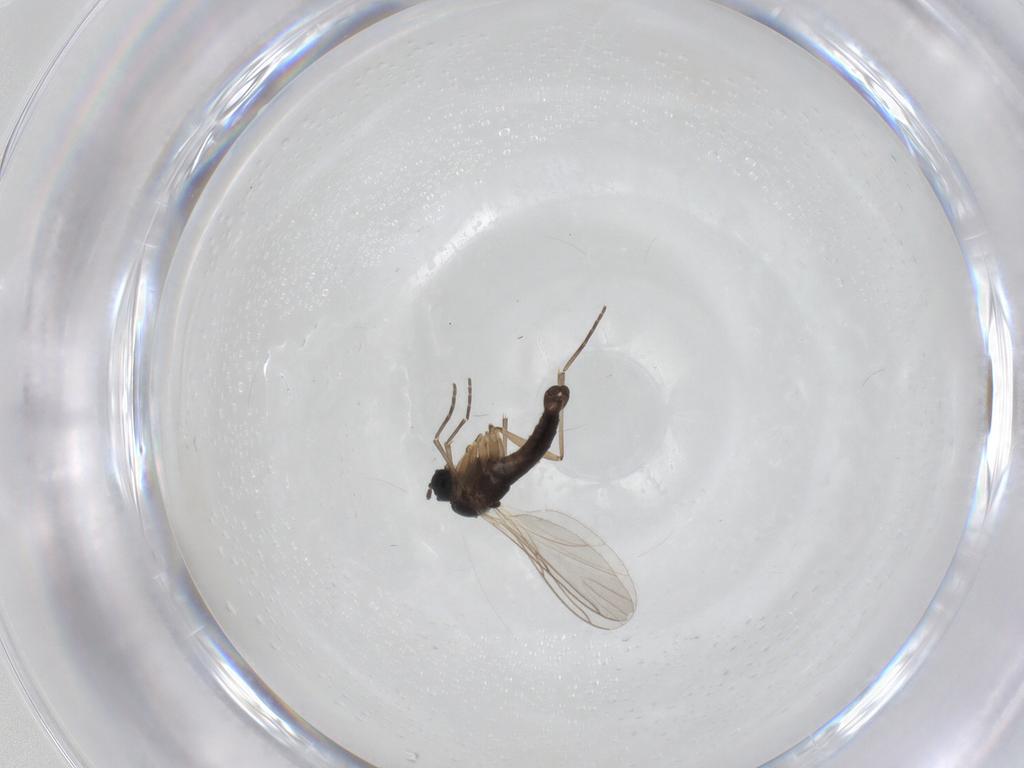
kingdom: Animalia
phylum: Arthropoda
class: Insecta
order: Diptera
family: Sciaridae
